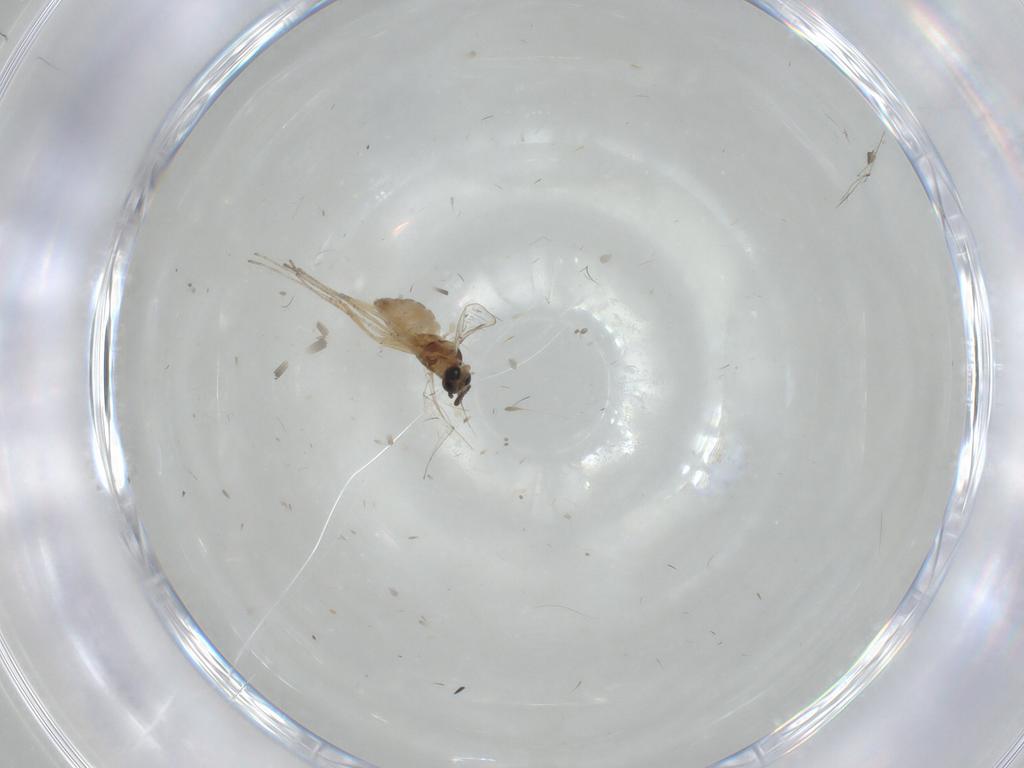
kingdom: Animalia
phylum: Arthropoda
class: Insecta
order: Diptera
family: Cecidomyiidae
